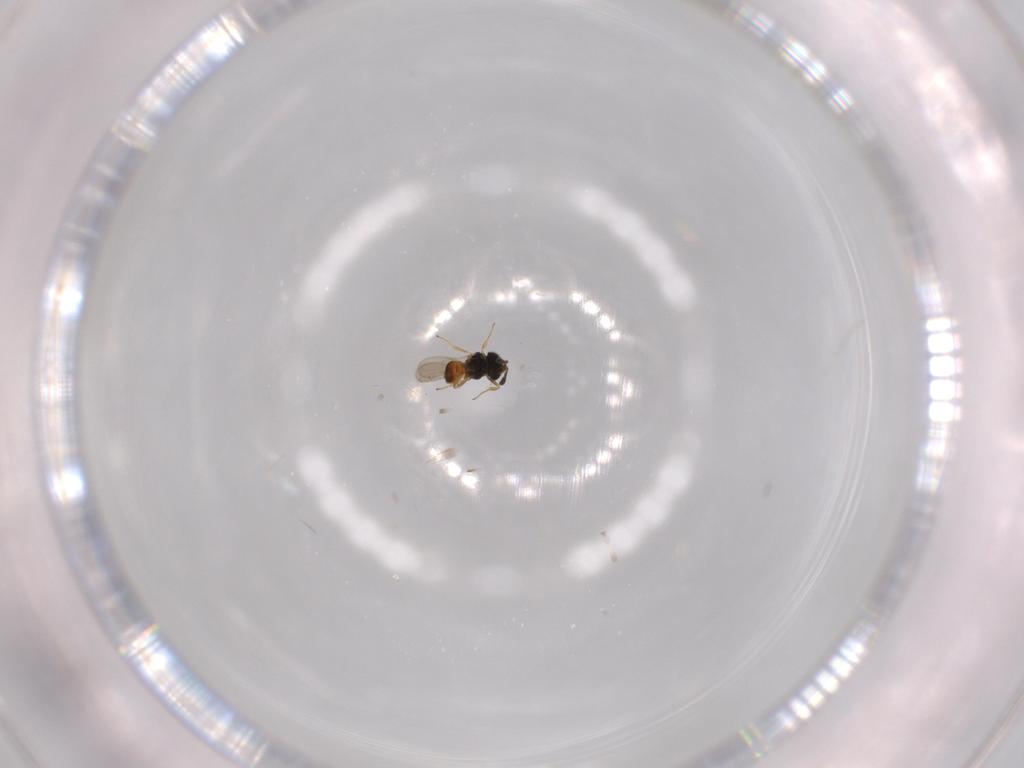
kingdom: Animalia
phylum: Arthropoda
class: Insecta
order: Hymenoptera
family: Scelionidae
